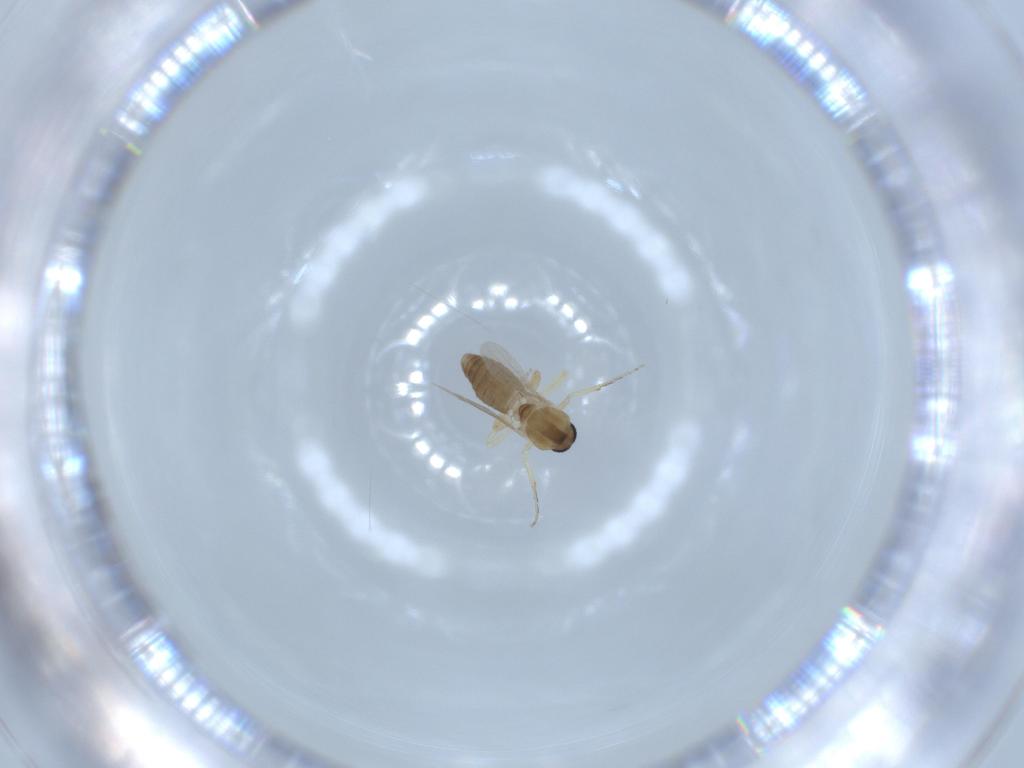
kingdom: Animalia
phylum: Arthropoda
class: Insecta
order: Diptera
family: Ceratopogonidae
